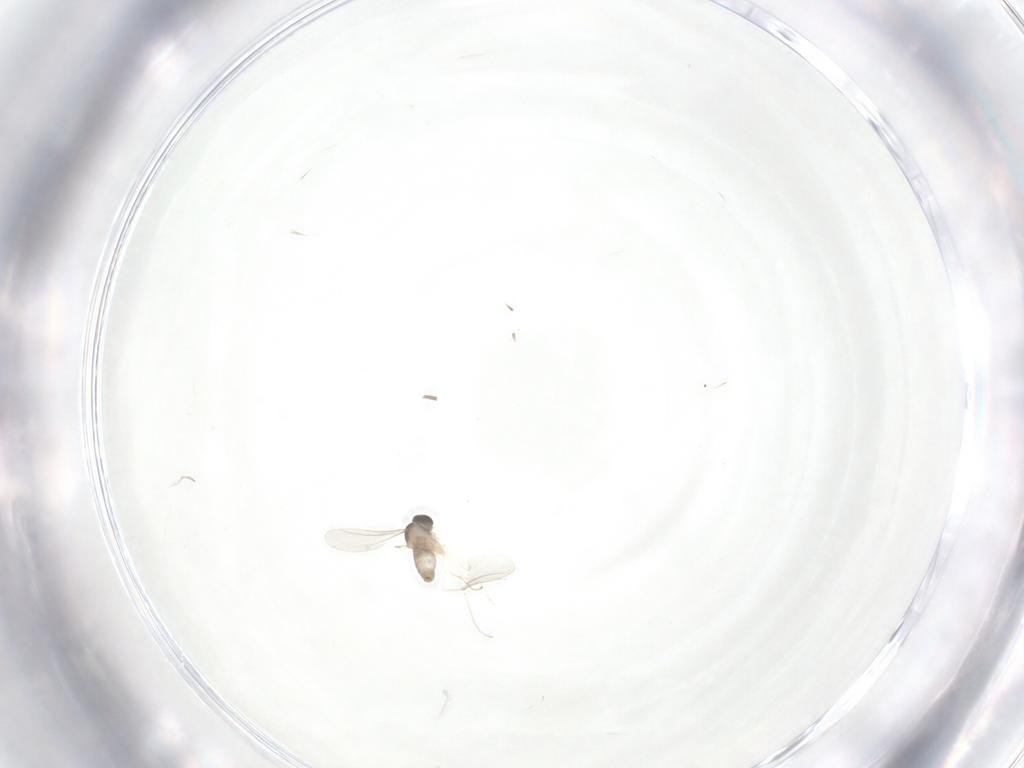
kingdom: Animalia
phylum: Arthropoda
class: Insecta
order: Diptera
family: Cecidomyiidae
